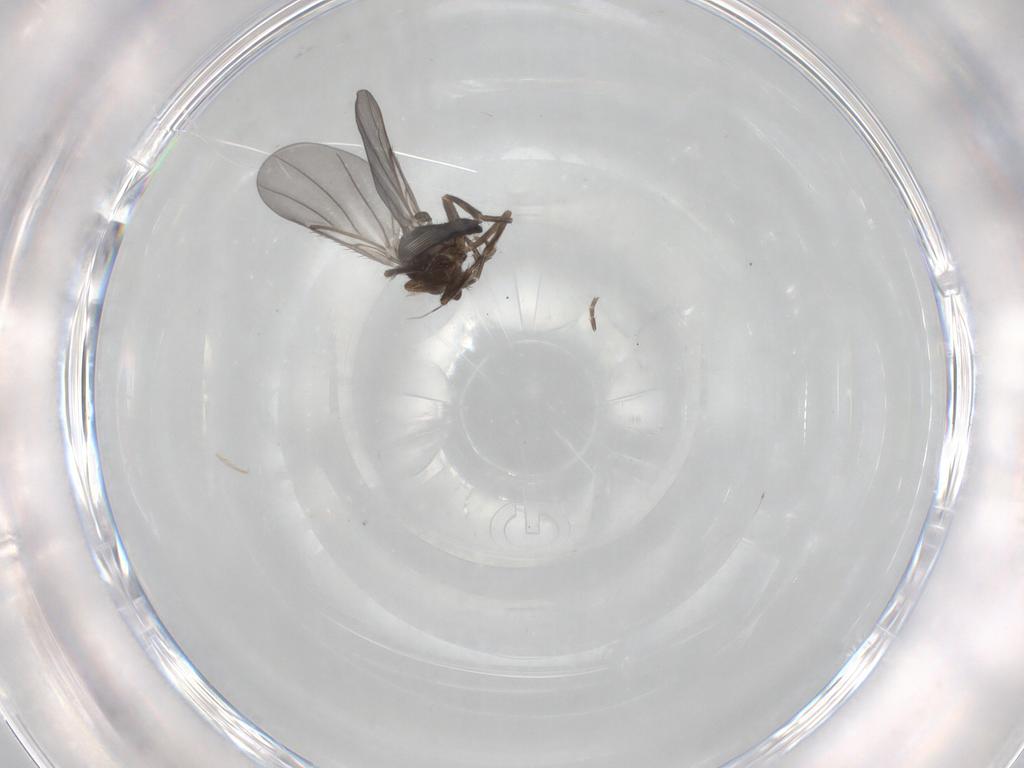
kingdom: Animalia
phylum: Arthropoda
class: Insecta
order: Diptera
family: Phoridae
